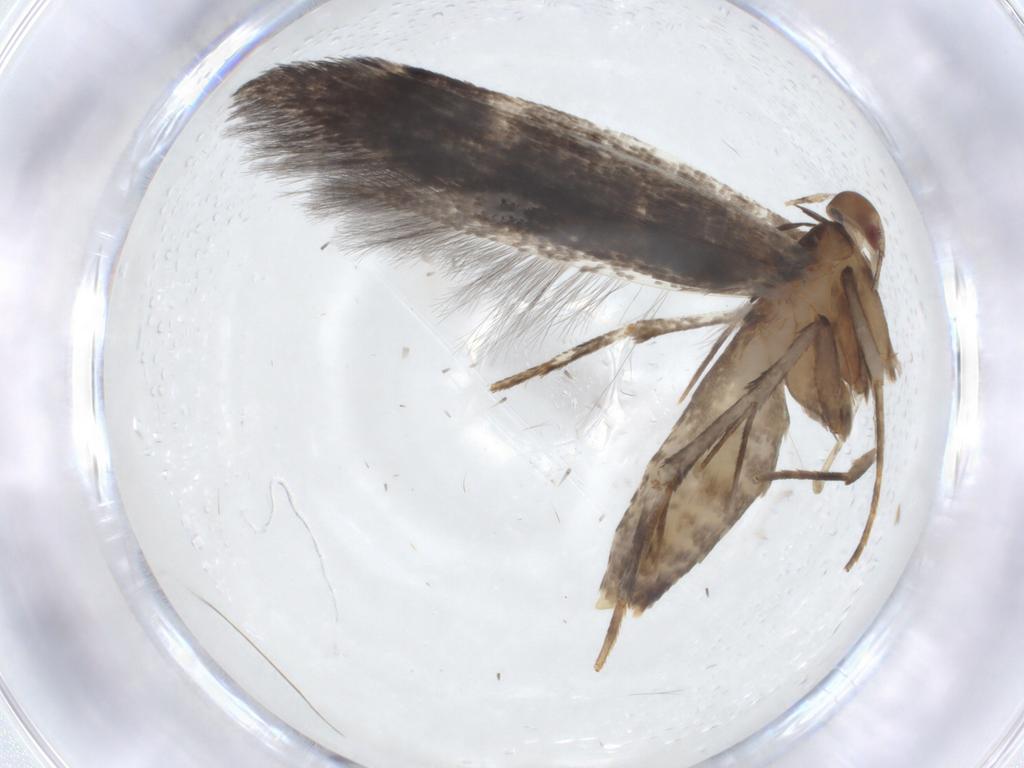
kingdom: Animalia
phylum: Arthropoda
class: Insecta
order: Lepidoptera
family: Cosmopterigidae
